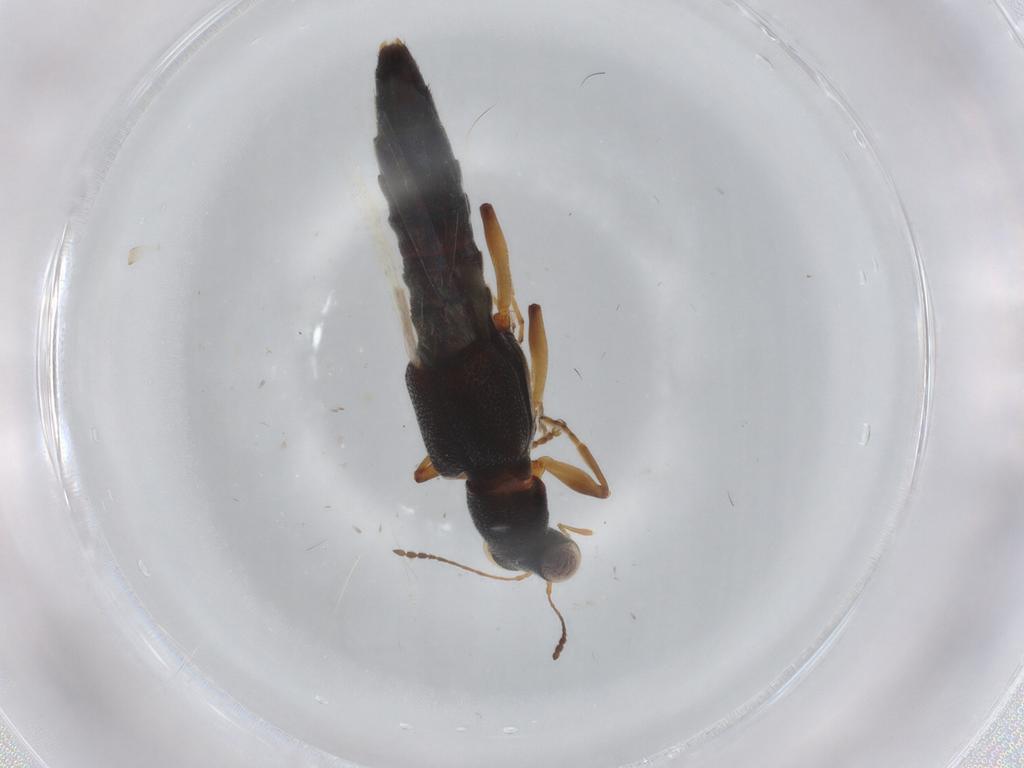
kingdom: Animalia
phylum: Arthropoda
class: Insecta
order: Coleoptera
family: Staphylinidae
